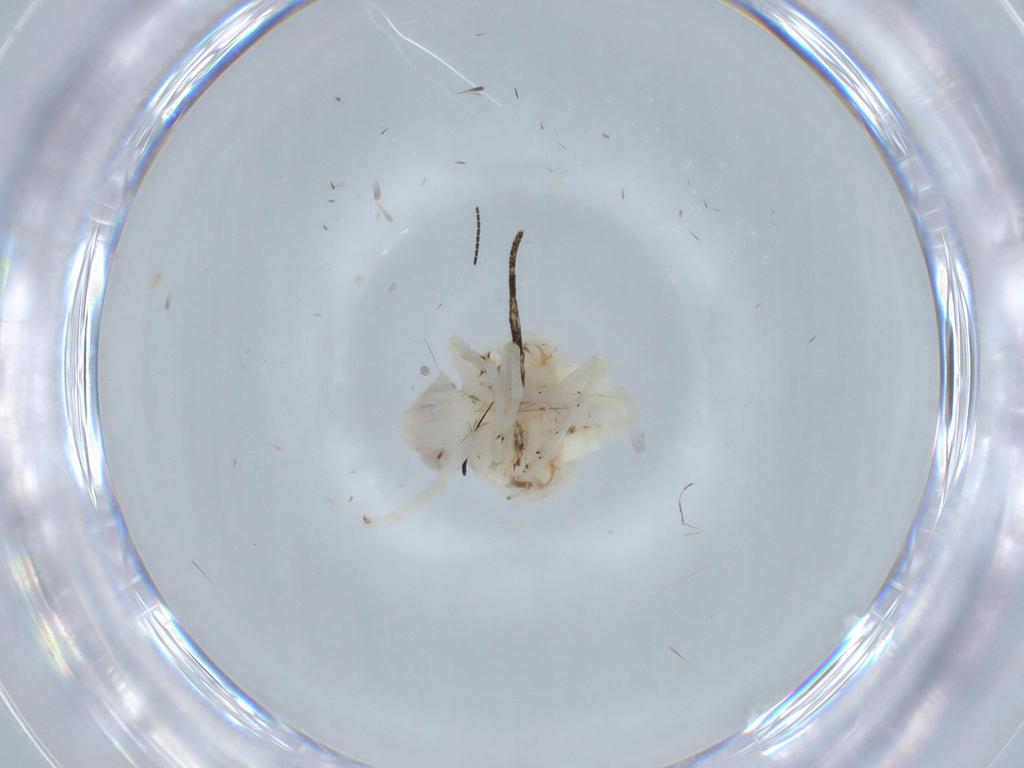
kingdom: Animalia
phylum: Arthropoda
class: Insecta
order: Hemiptera
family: Nogodinidae
